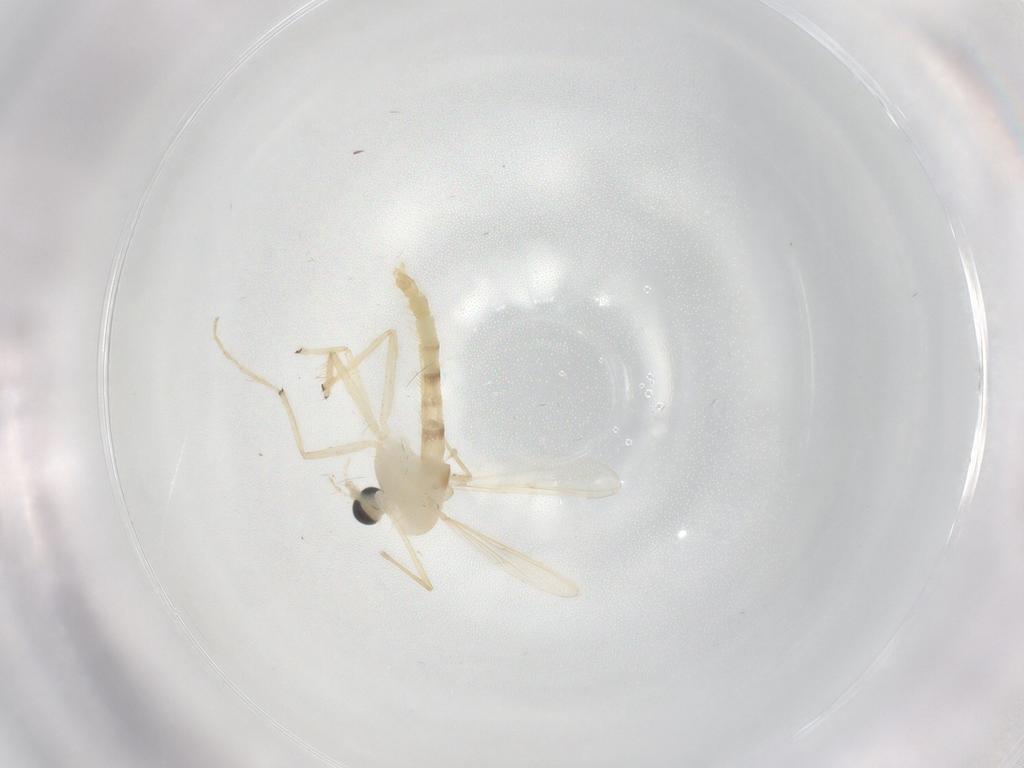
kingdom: Animalia
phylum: Arthropoda
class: Insecta
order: Diptera
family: Chironomidae
